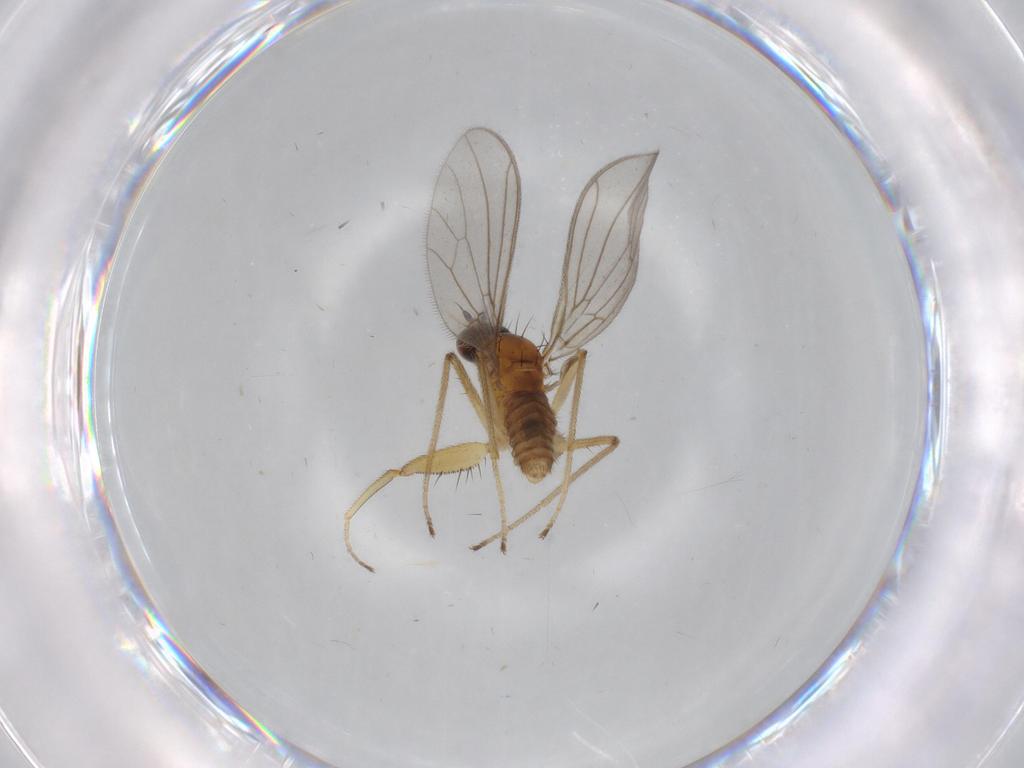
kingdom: Animalia
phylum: Arthropoda
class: Insecta
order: Diptera
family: Empididae
